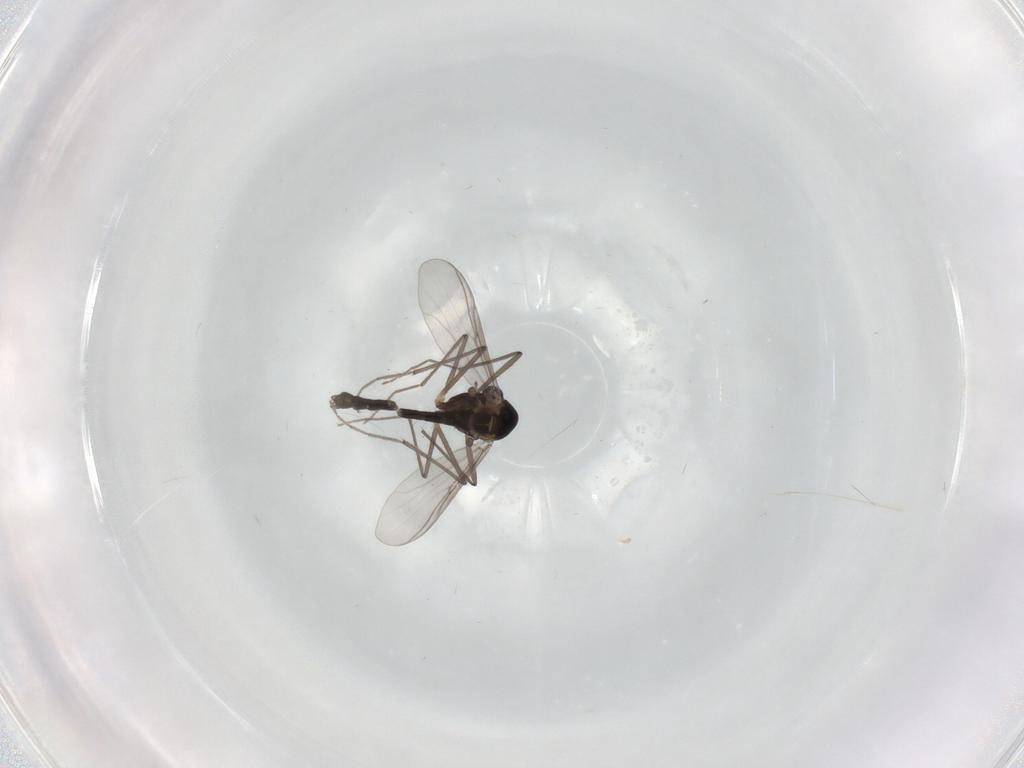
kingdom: Animalia
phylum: Arthropoda
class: Insecta
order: Diptera
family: Chironomidae
